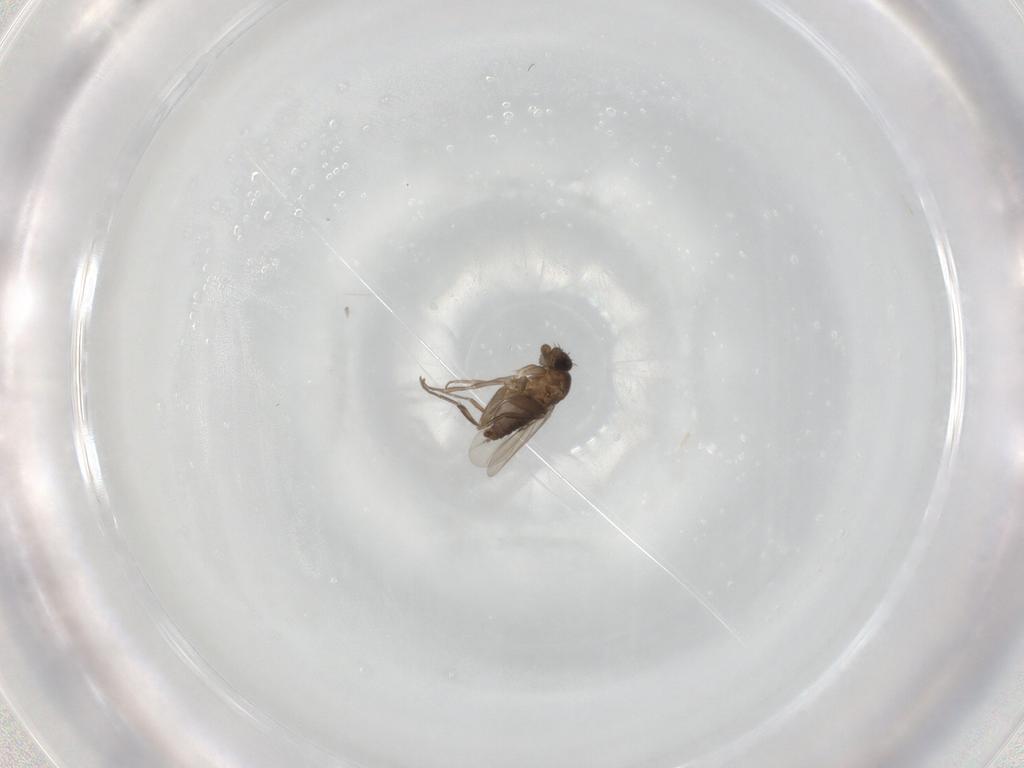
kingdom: Animalia
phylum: Arthropoda
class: Insecta
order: Diptera
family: Phoridae
